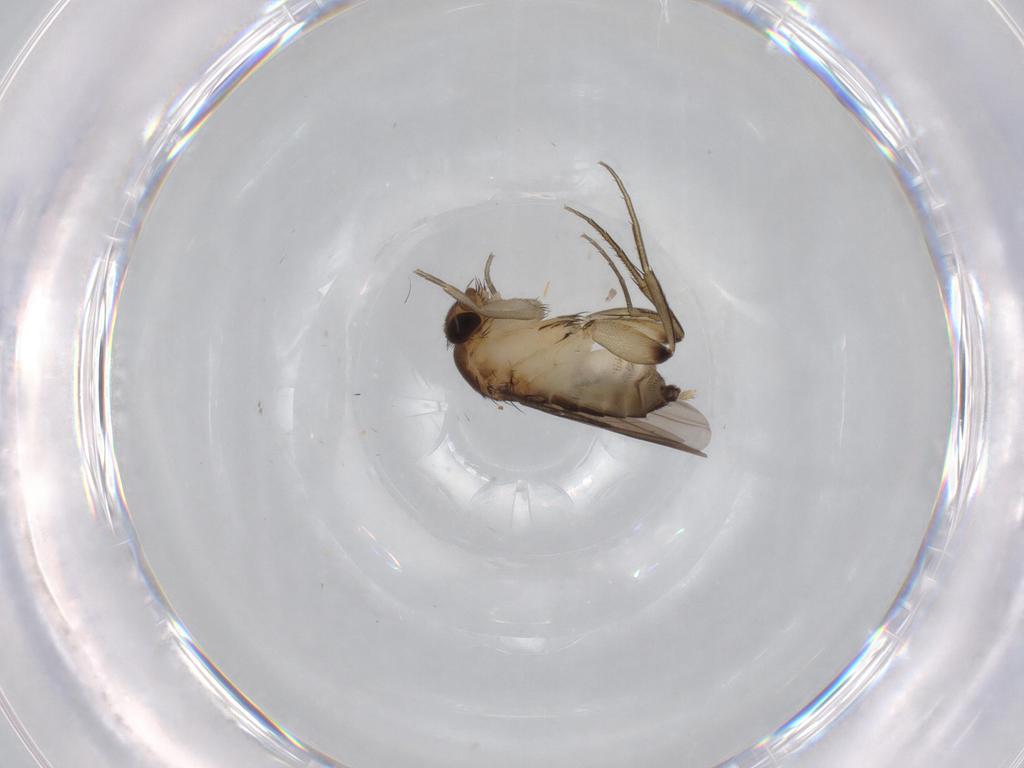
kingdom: Animalia
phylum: Arthropoda
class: Insecta
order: Diptera
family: Phoridae
